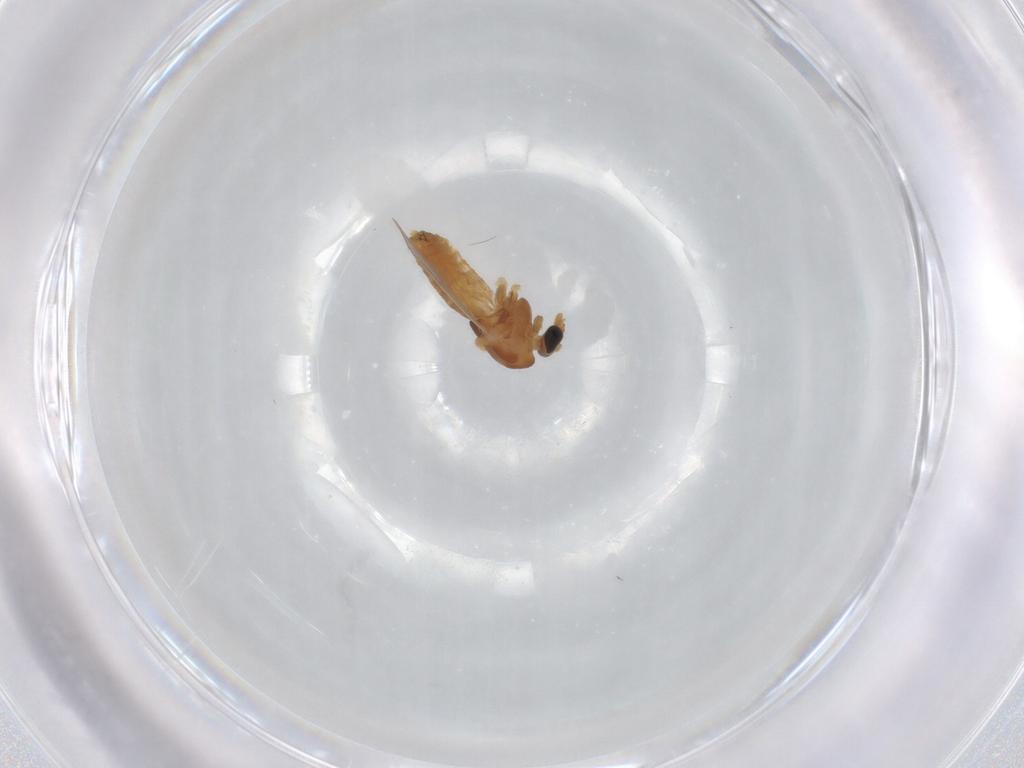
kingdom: Animalia
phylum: Arthropoda
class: Insecta
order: Diptera
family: Chironomidae
